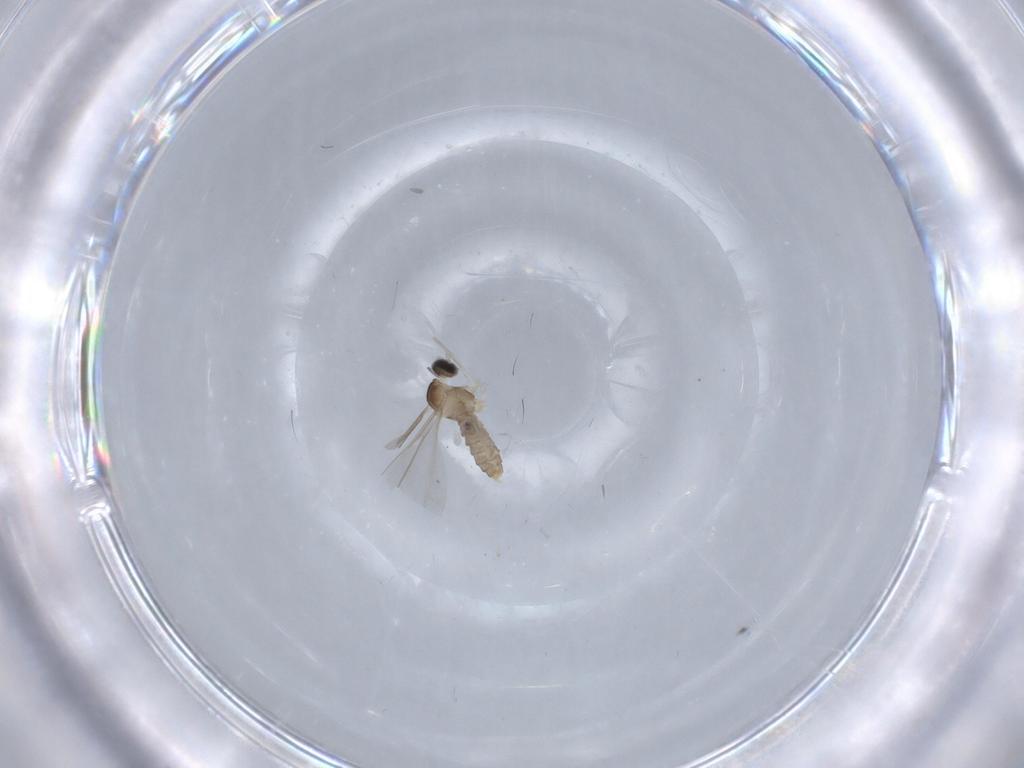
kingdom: Animalia
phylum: Arthropoda
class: Insecta
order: Diptera
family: Cecidomyiidae
